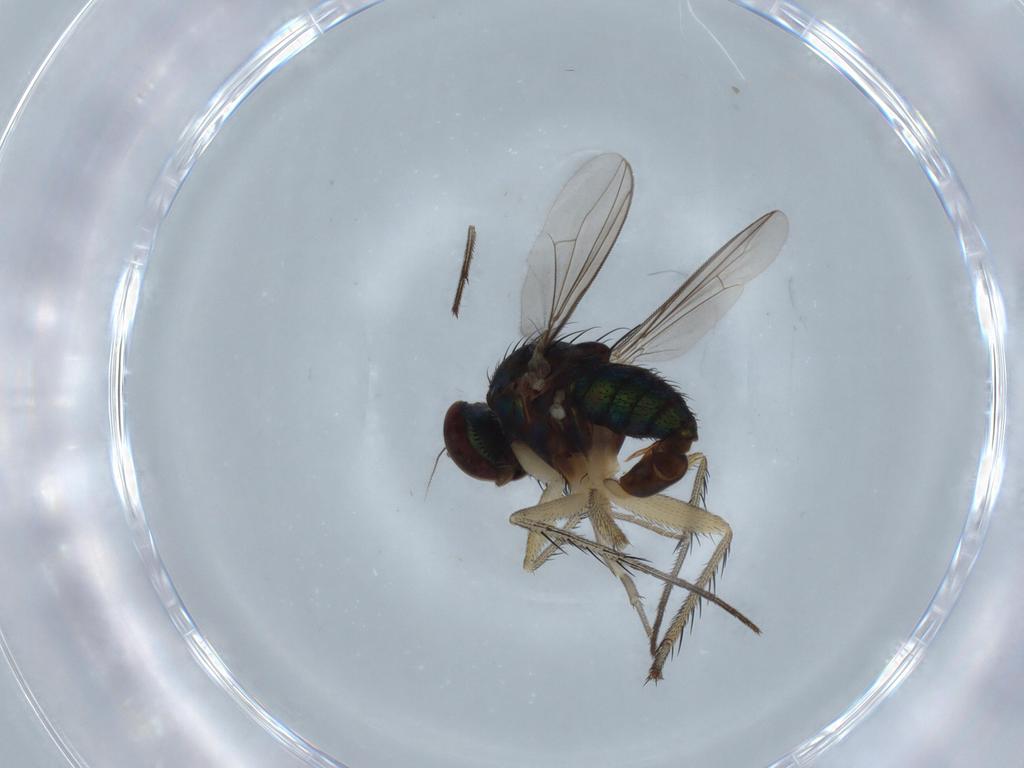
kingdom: Animalia
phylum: Arthropoda
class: Insecta
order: Diptera
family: Dolichopodidae
